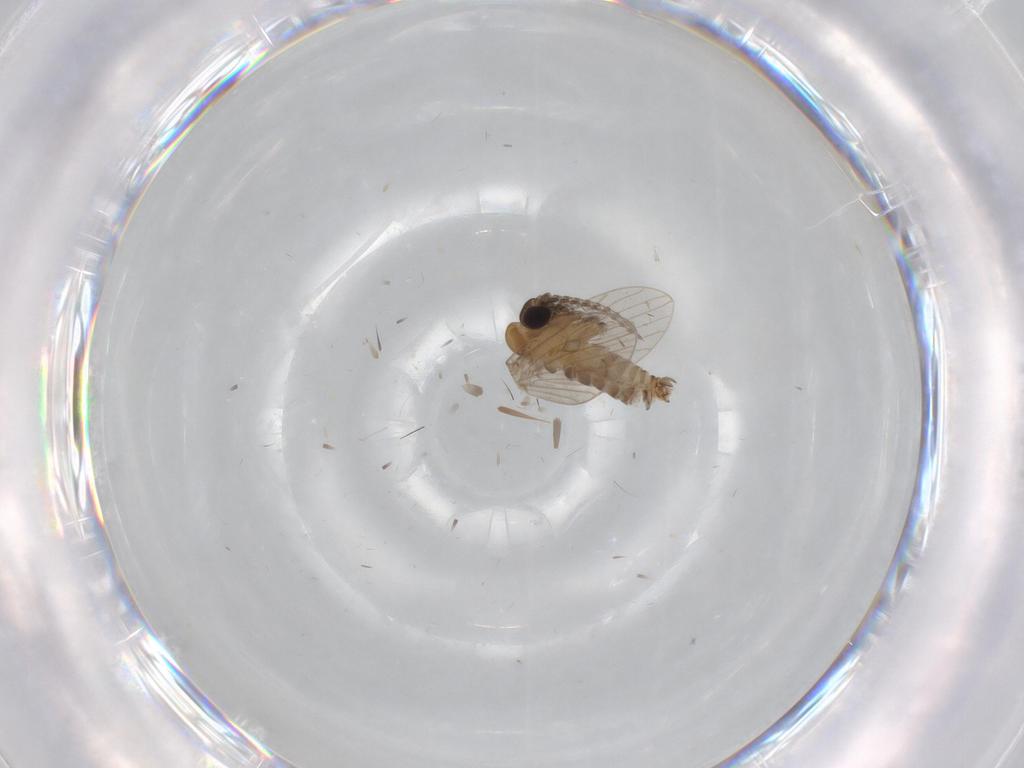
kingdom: Animalia
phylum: Arthropoda
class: Insecta
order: Diptera
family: Psychodidae
